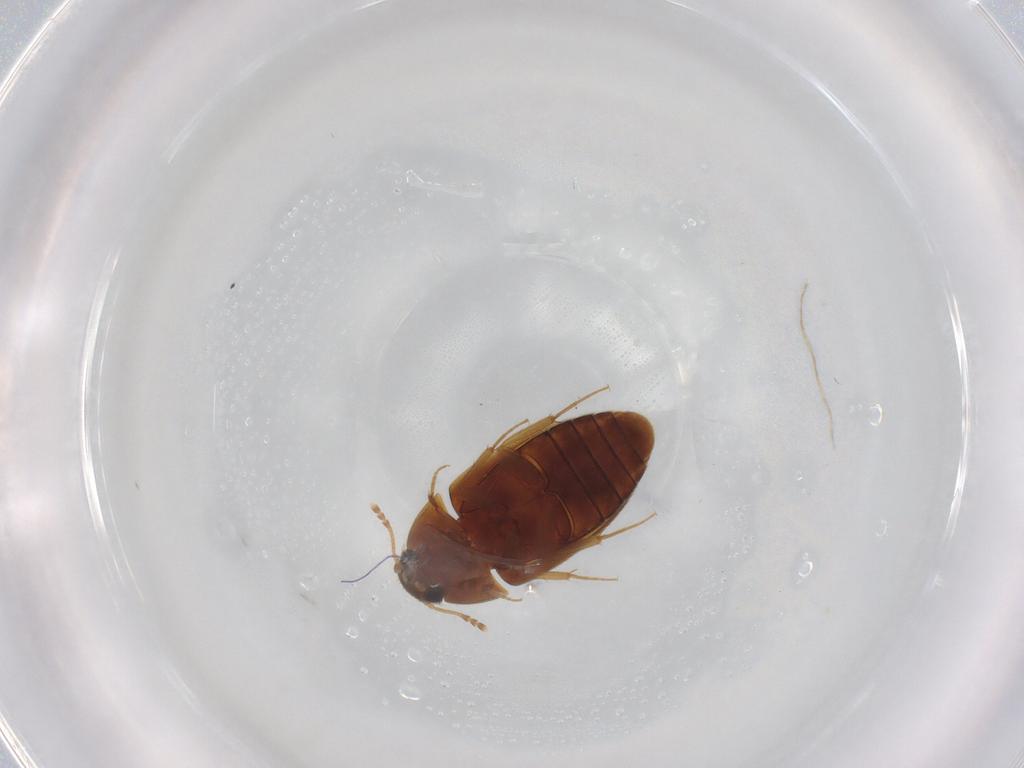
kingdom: Animalia
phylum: Arthropoda
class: Insecta
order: Coleoptera
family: Mycetophagidae
